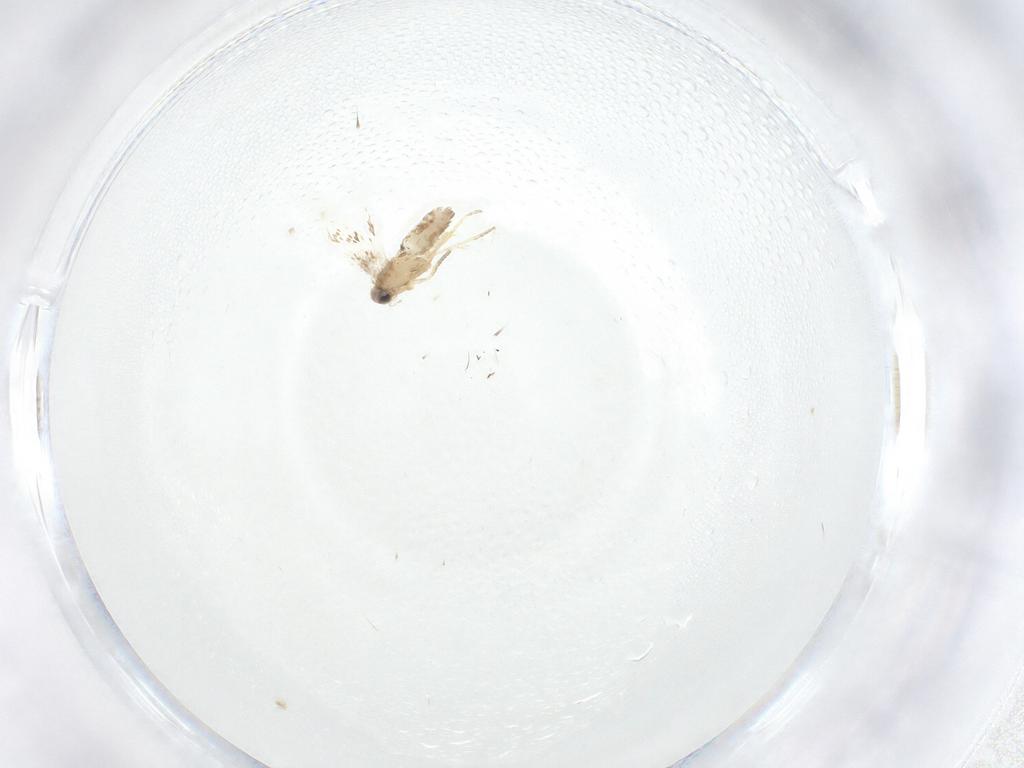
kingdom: Animalia
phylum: Arthropoda
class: Insecta
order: Lepidoptera
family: Nepticulidae
